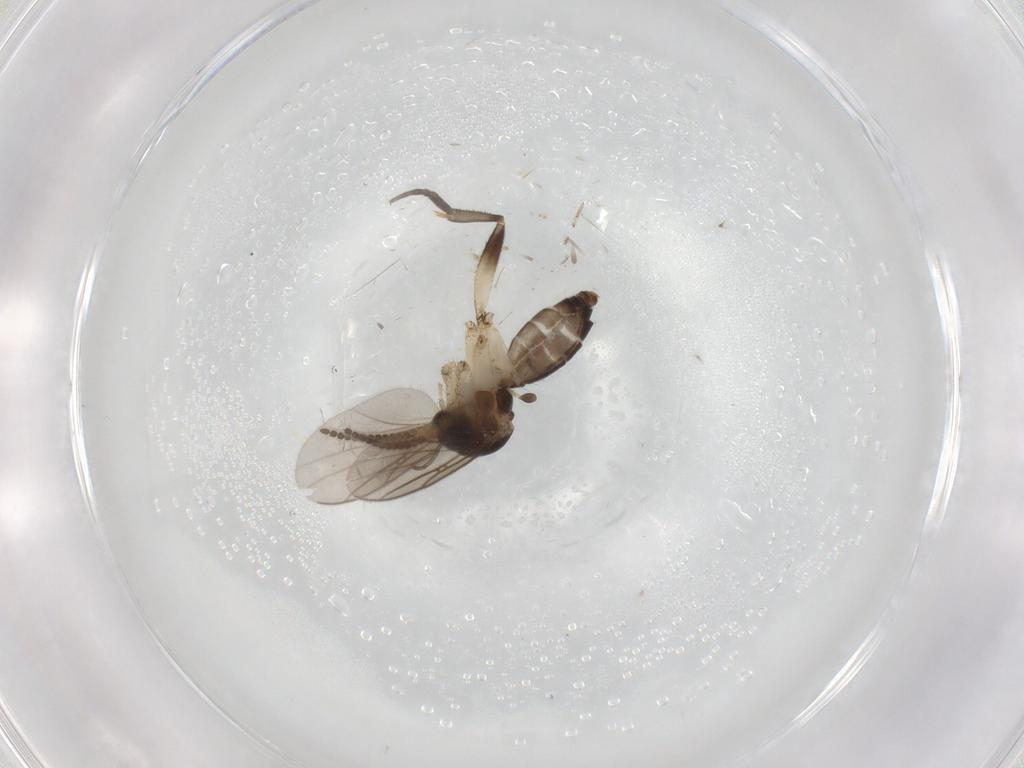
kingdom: Animalia
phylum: Arthropoda
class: Insecta
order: Diptera
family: Mycetophilidae
